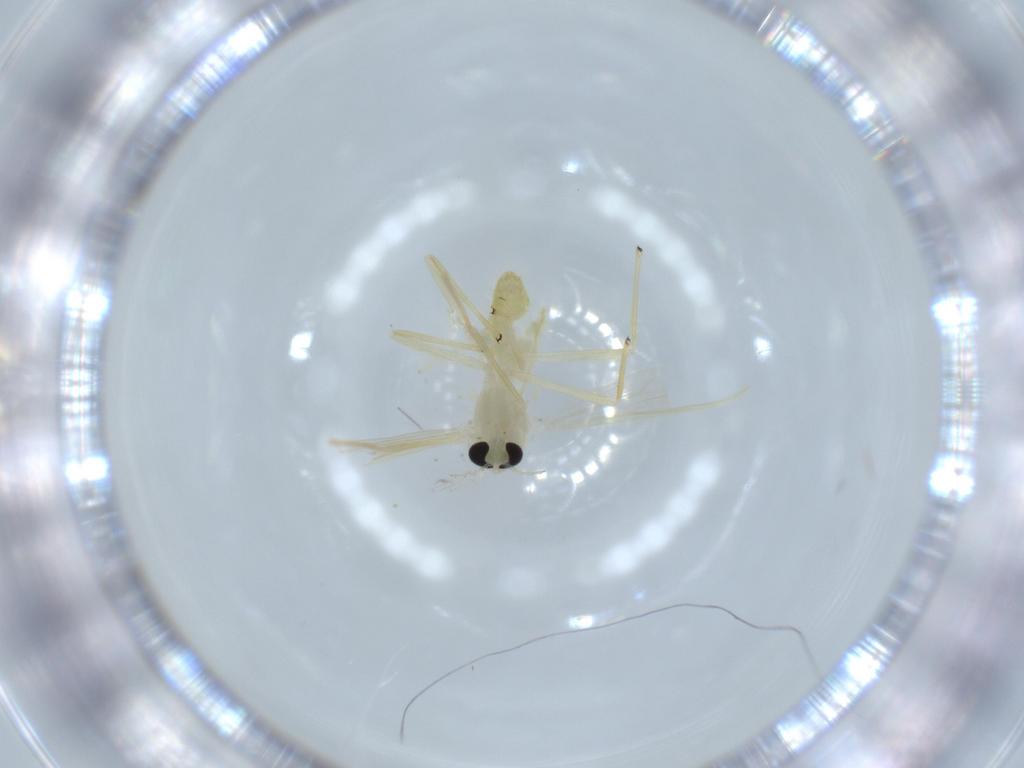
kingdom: Animalia
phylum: Arthropoda
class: Insecta
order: Diptera
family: Chironomidae
